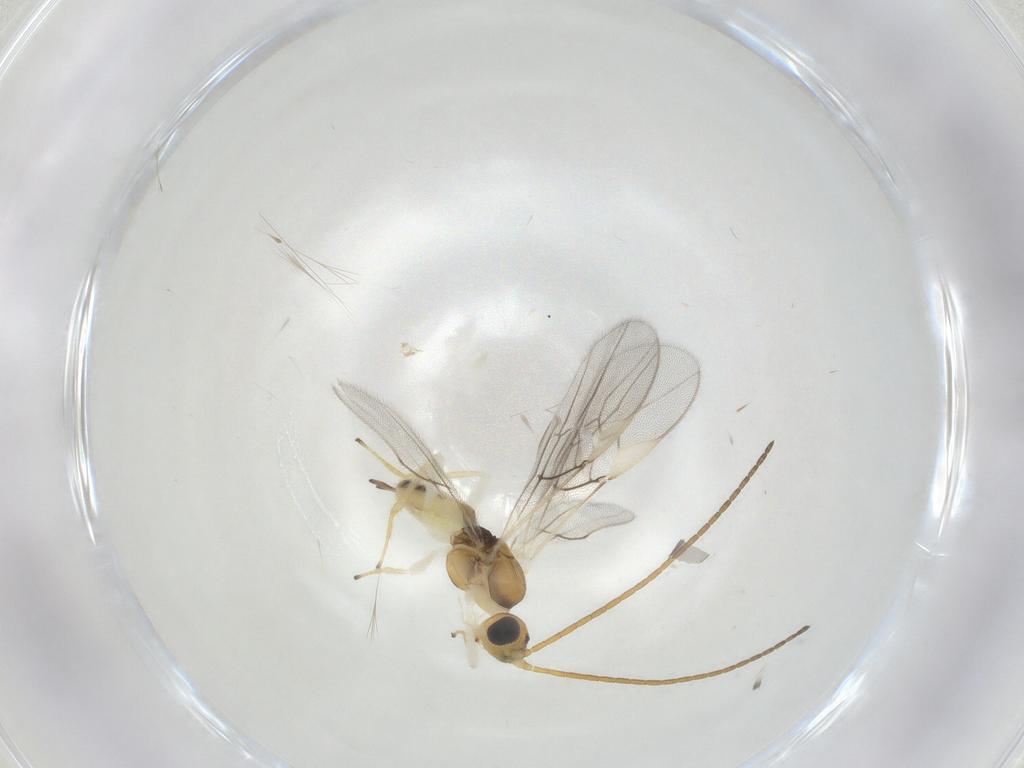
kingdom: Animalia
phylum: Arthropoda
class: Insecta
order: Hymenoptera
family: Braconidae
